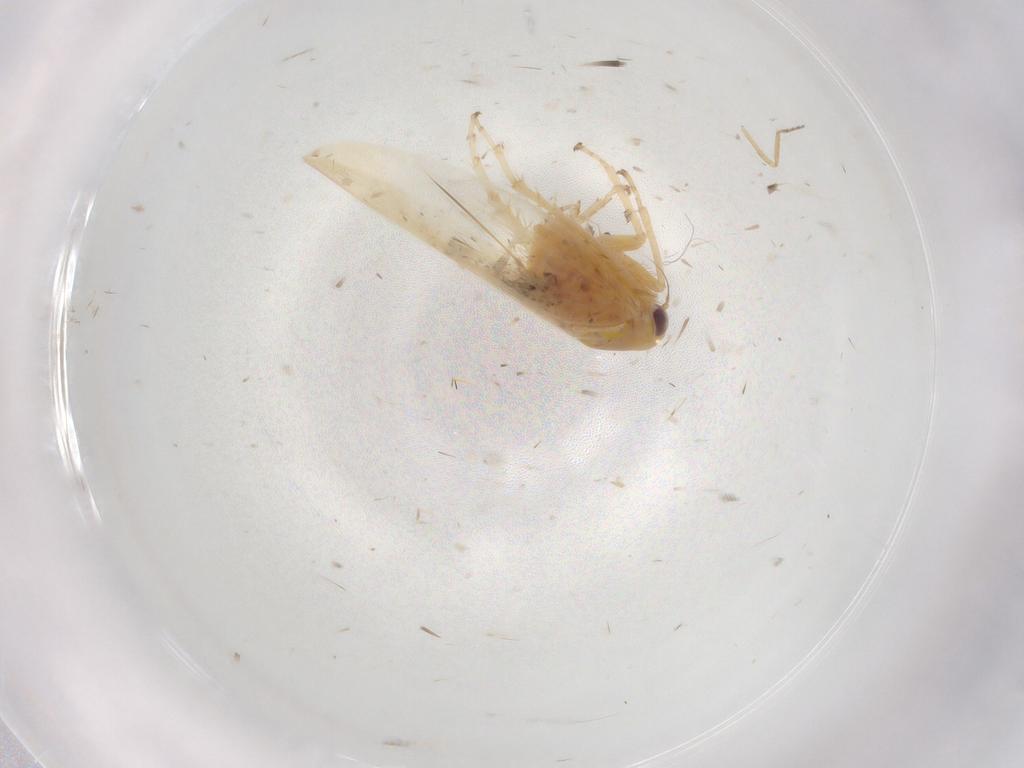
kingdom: Animalia
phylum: Arthropoda
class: Insecta
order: Hemiptera
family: Cicadellidae
